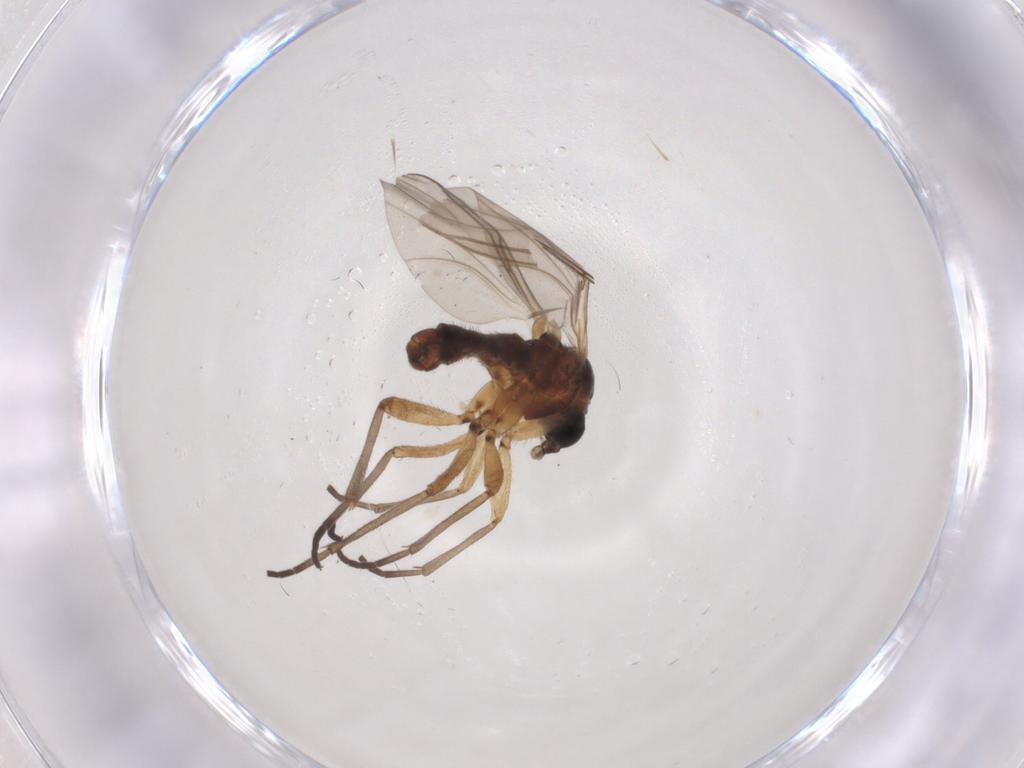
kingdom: Animalia
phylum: Arthropoda
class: Insecta
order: Diptera
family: Sciaridae
